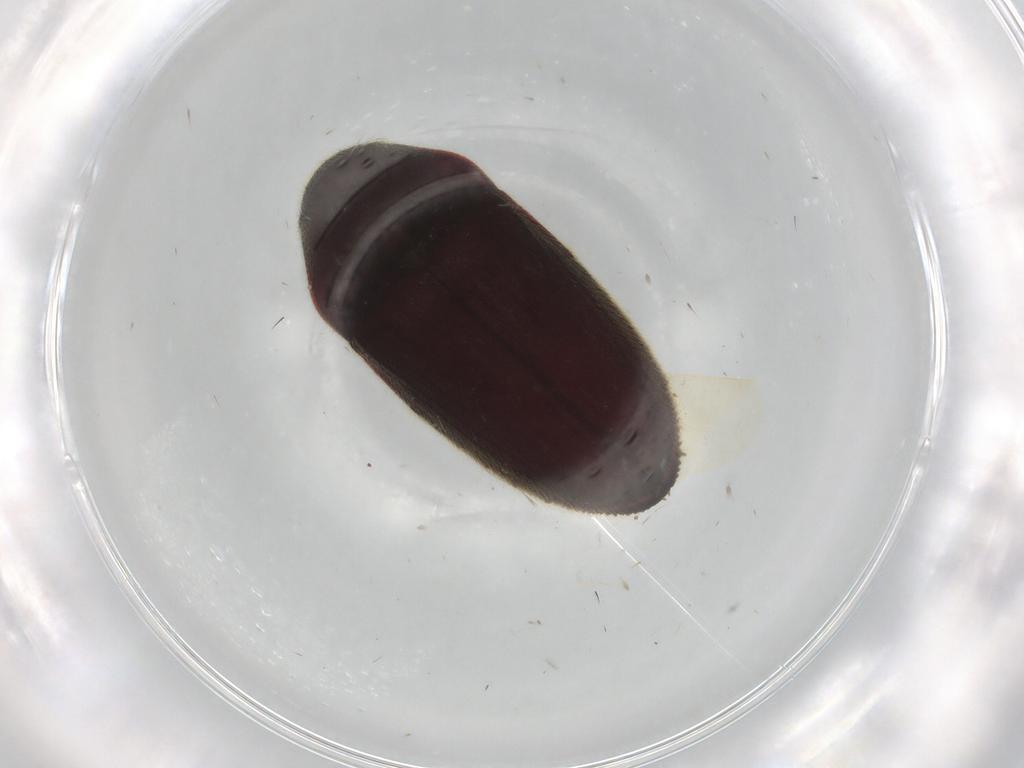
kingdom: Animalia
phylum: Arthropoda
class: Insecta
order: Coleoptera
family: Throscidae
